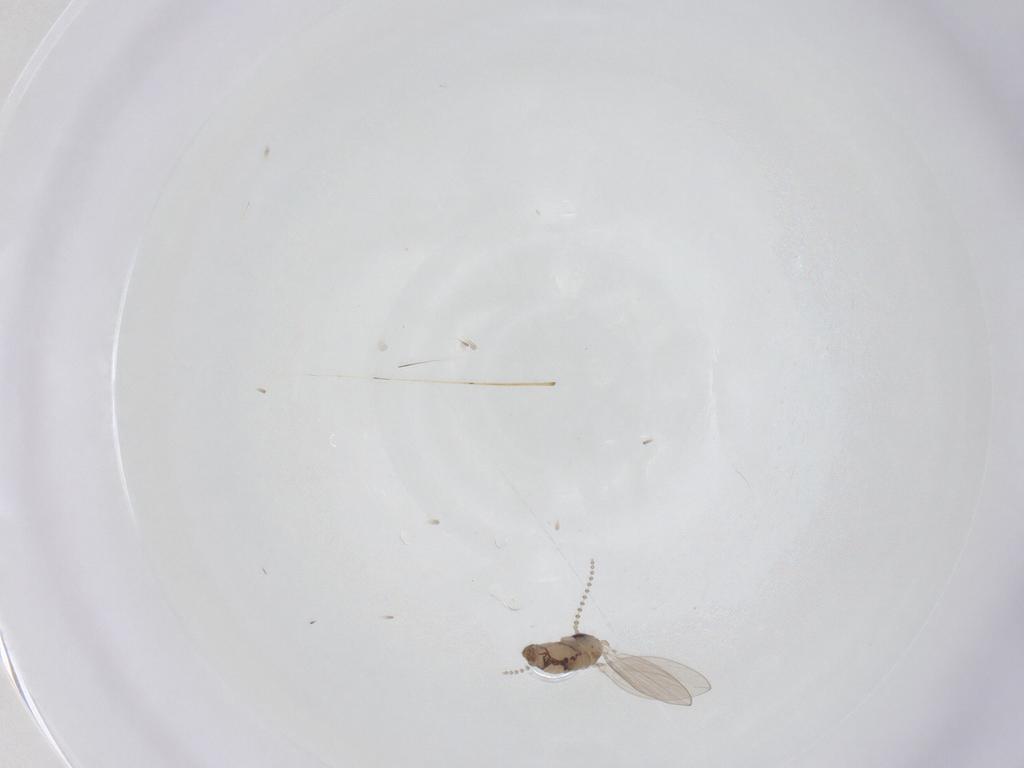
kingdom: Animalia
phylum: Arthropoda
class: Insecta
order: Diptera
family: Psychodidae
